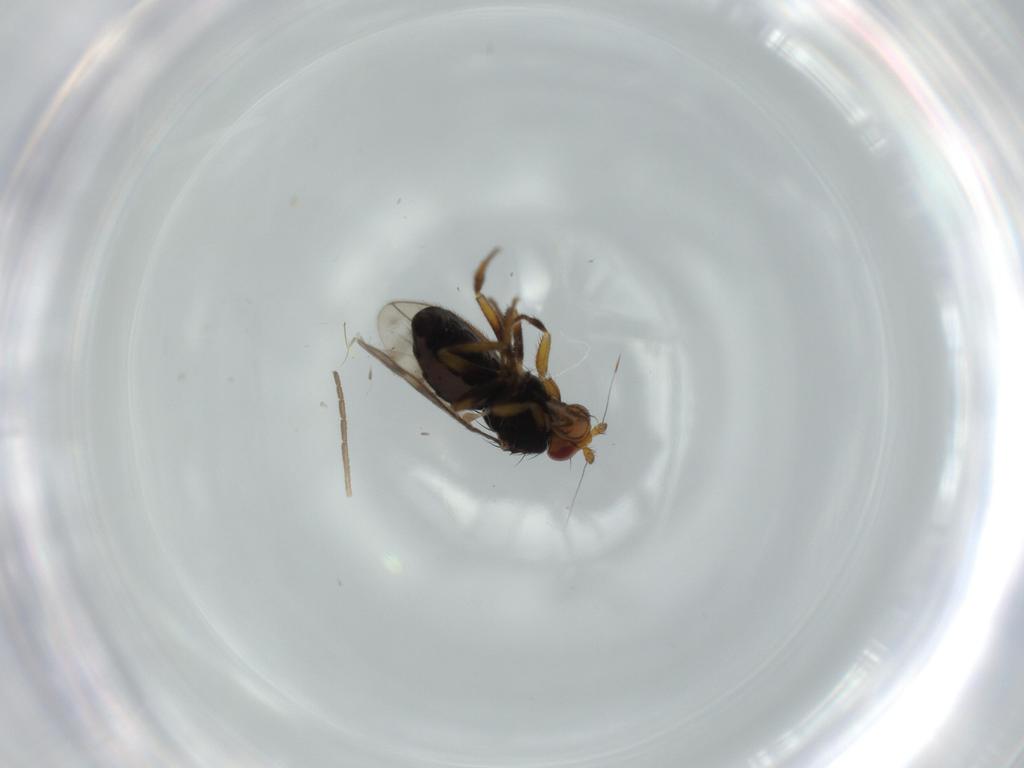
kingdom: Animalia
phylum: Arthropoda
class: Insecta
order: Diptera
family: Sphaeroceridae
